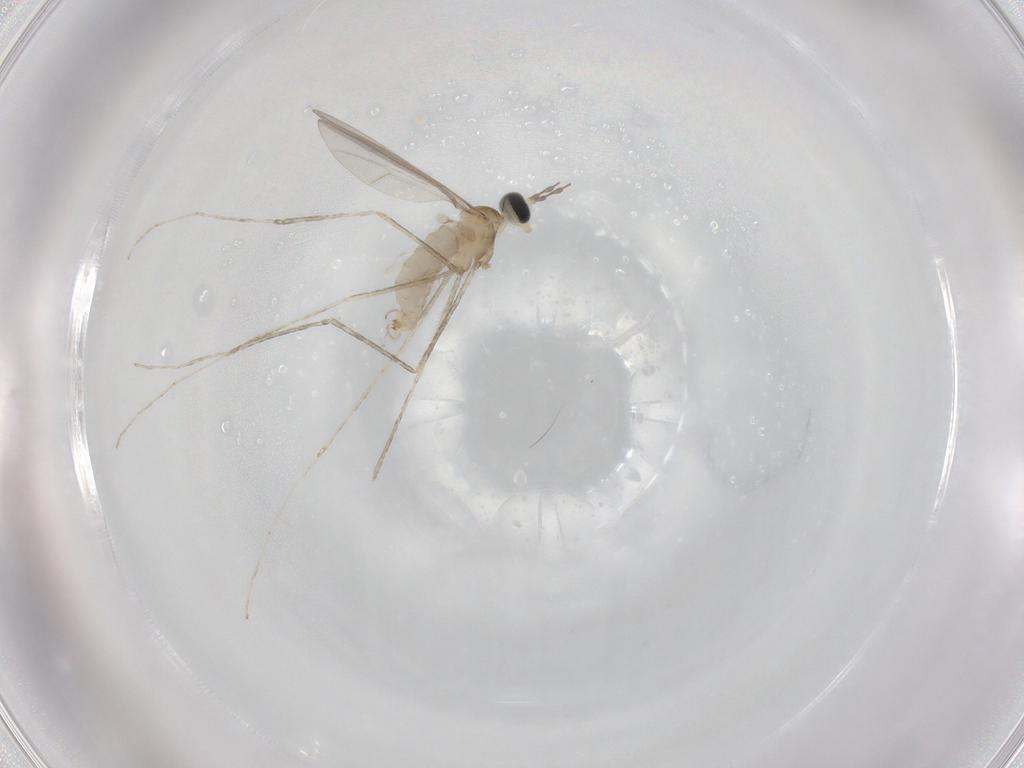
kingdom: Animalia
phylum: Arthropoda
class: Insecta
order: Diptera
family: Cecidomyiidae
